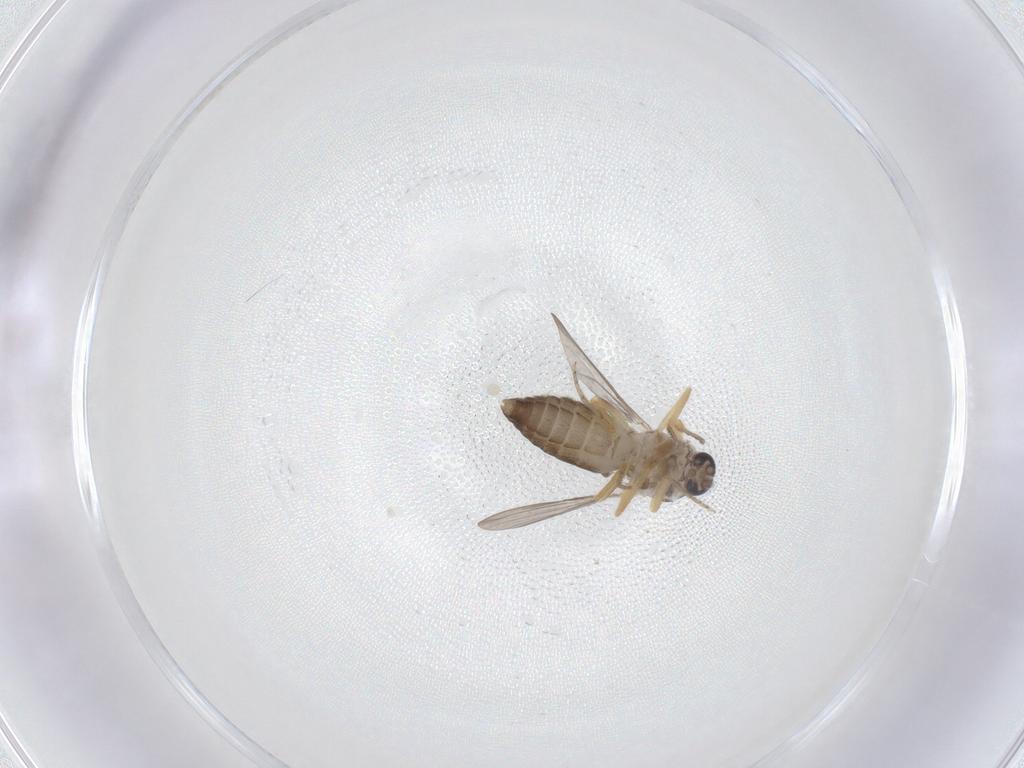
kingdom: Animalia
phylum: Arthropoda
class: Insecta
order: Diptera
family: Ceratopogonidae
